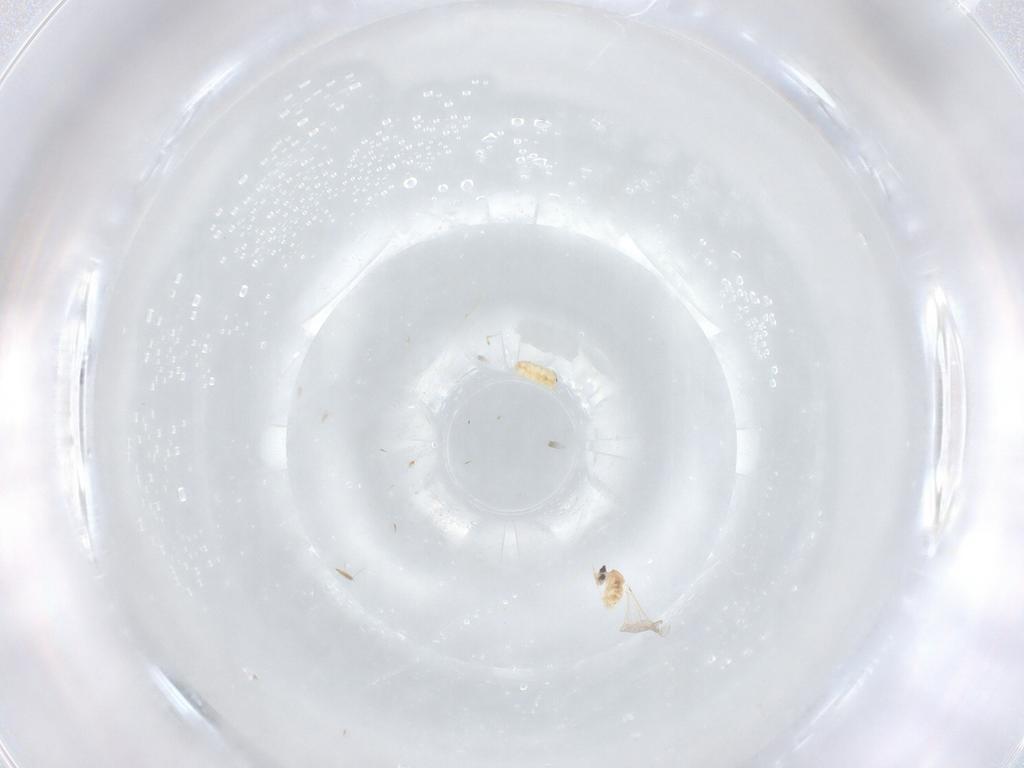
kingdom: Animalia
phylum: Arthropoda
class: Insecta
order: Diptera
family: Cecidomyiidae
